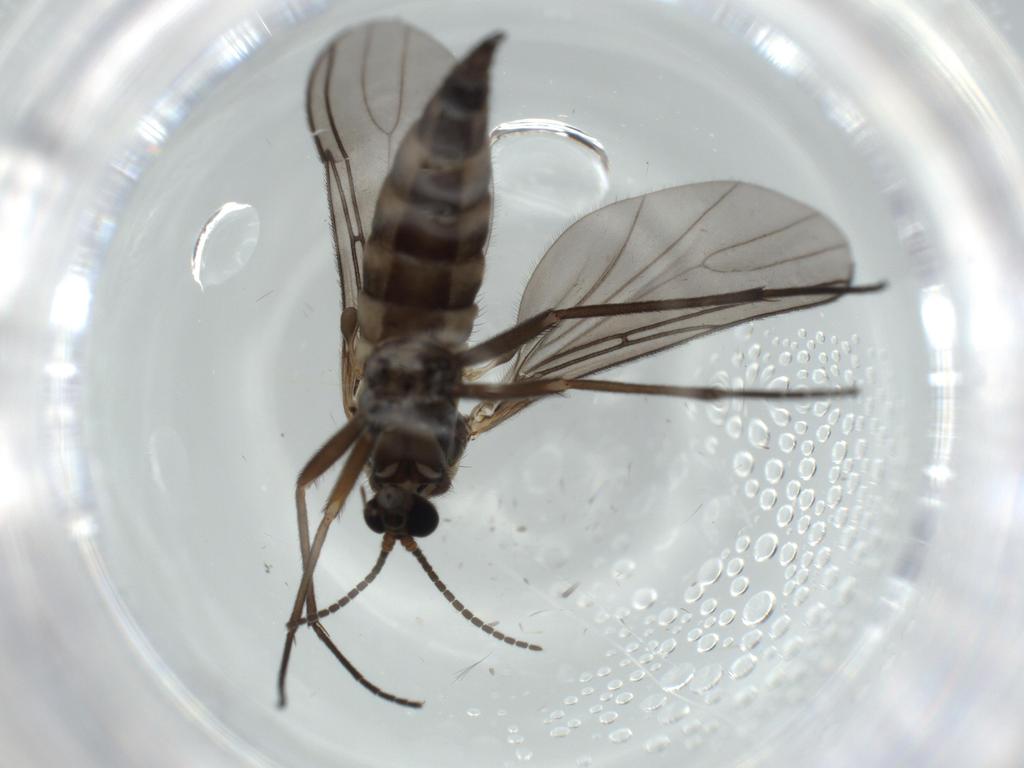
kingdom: Animalia
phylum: Arthropoda
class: Insecta
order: Diptera
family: Sciaridae
